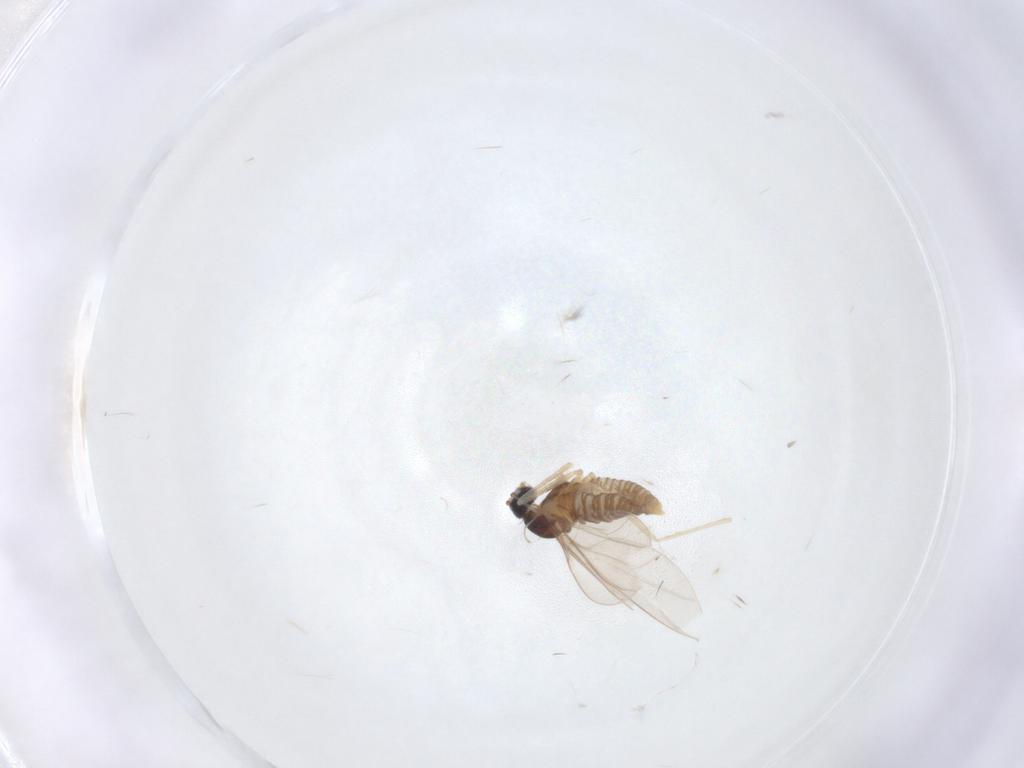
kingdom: Animalia
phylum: Arthropoda
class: Insecta
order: Diptera
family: Cecidomyiidae
